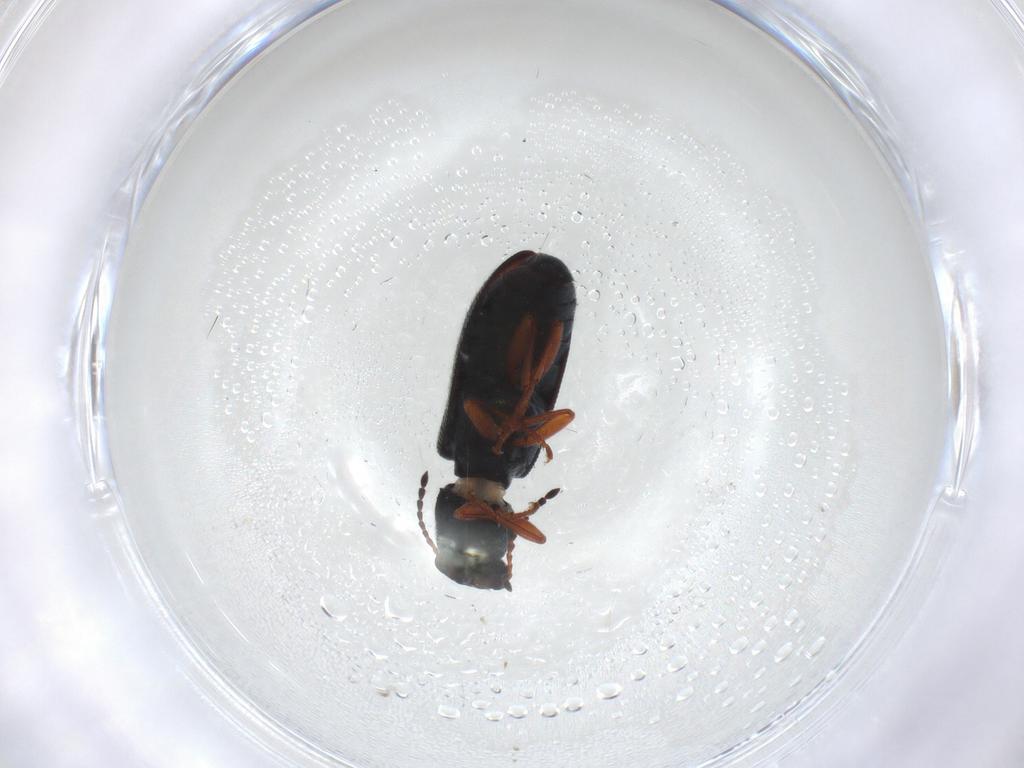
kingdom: Animalia
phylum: Arthropoda
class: Insecta
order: Coleoptera
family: Melyridae
